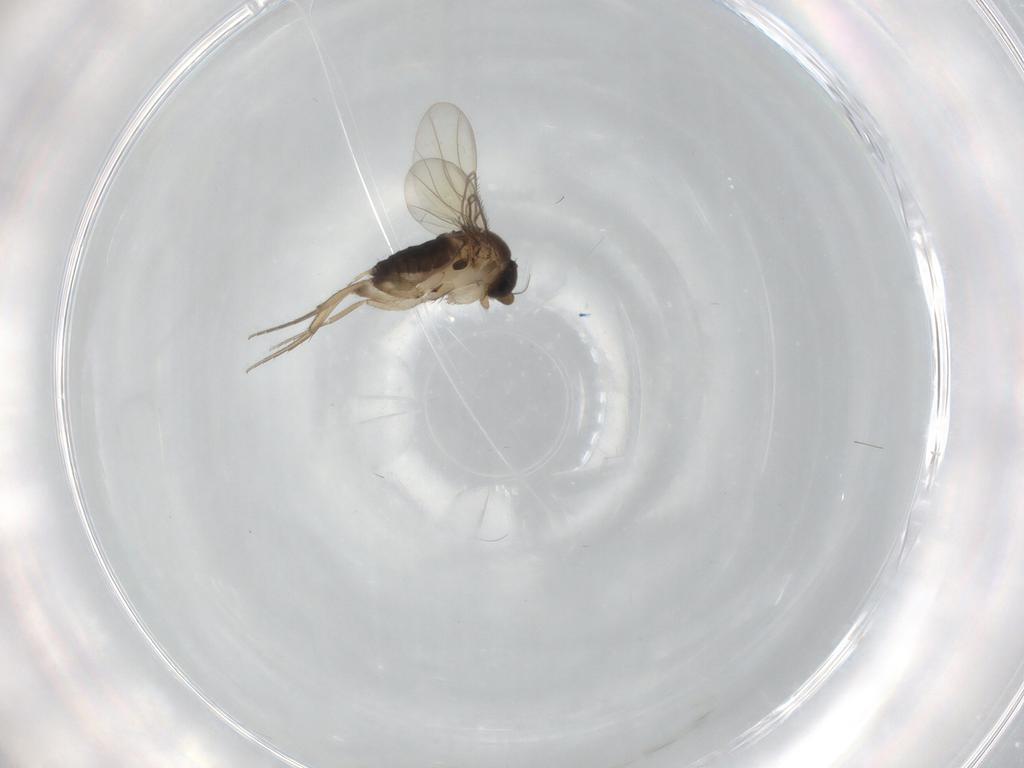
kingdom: Animalia
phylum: Arthropoda
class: Insecta
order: Diptera
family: Phoridae
